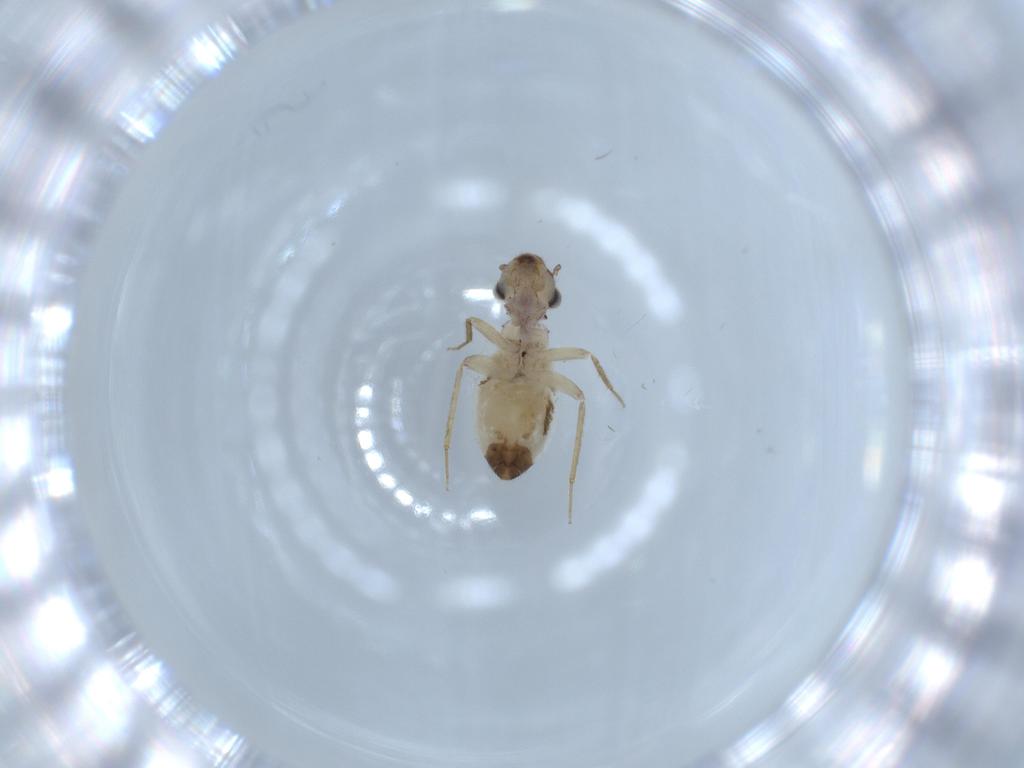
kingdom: Animalia
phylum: Arthropoda
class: Insecta
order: Psocodea
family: Lepidopsocidae
